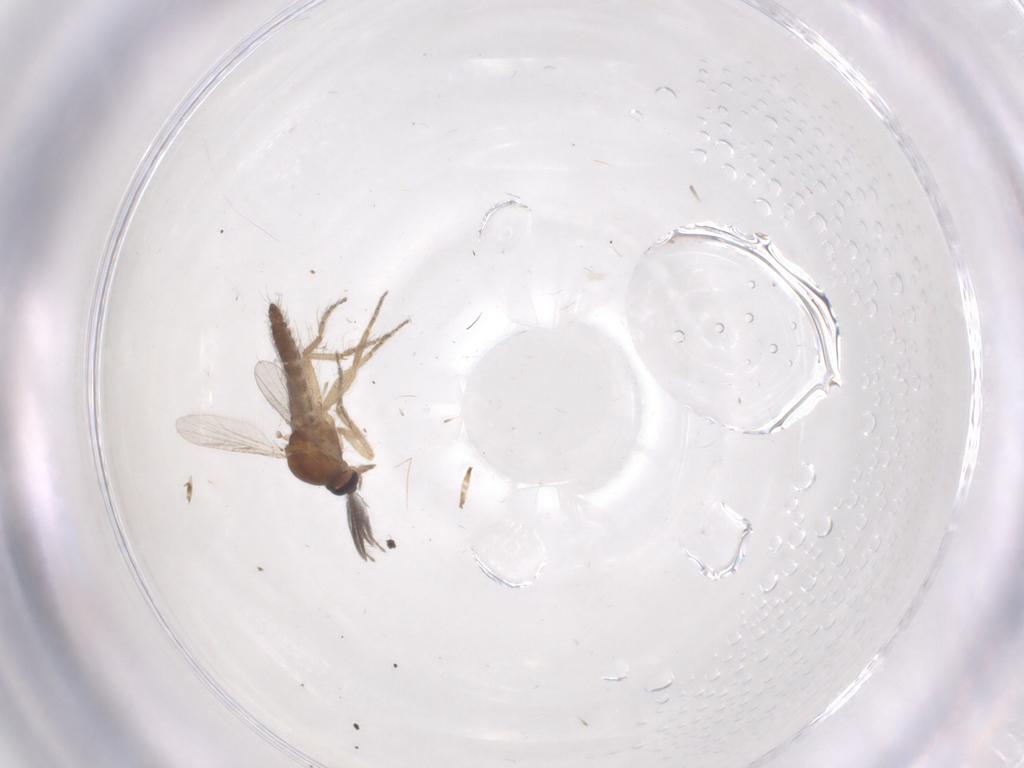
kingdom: Animalia
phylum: Arthropoda
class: Insecta
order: Diptera
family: Ceratopogonidae
